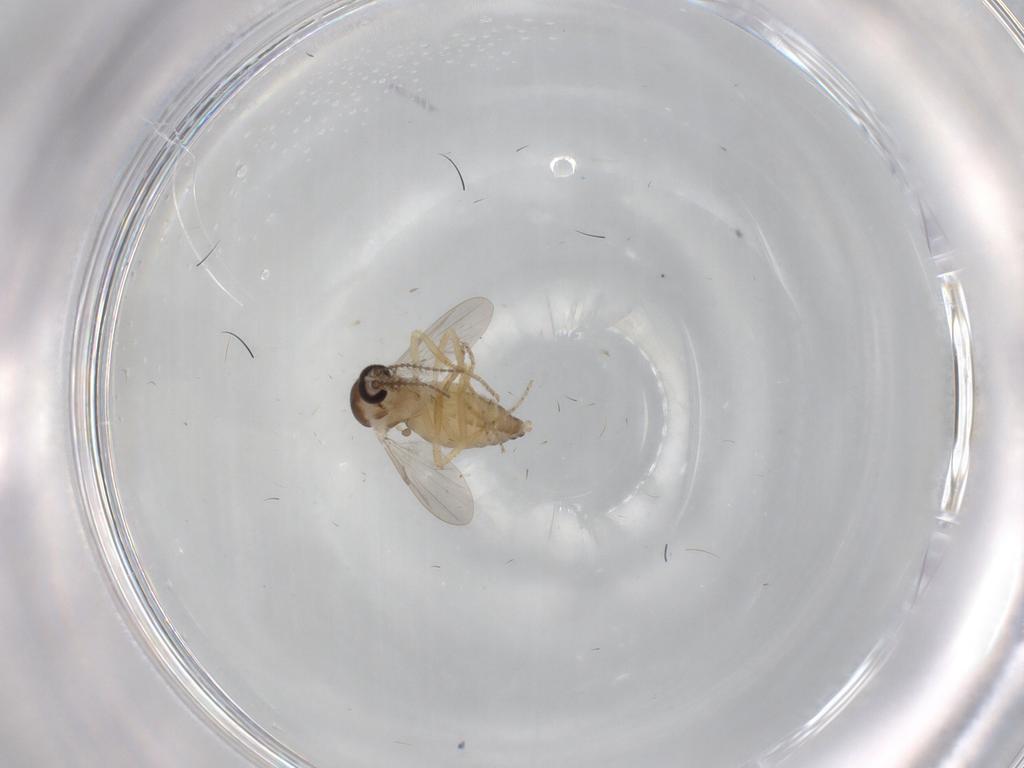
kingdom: Animalia
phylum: Arthropoda
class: Insecta
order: Diptera
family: Ceratopogonidae
